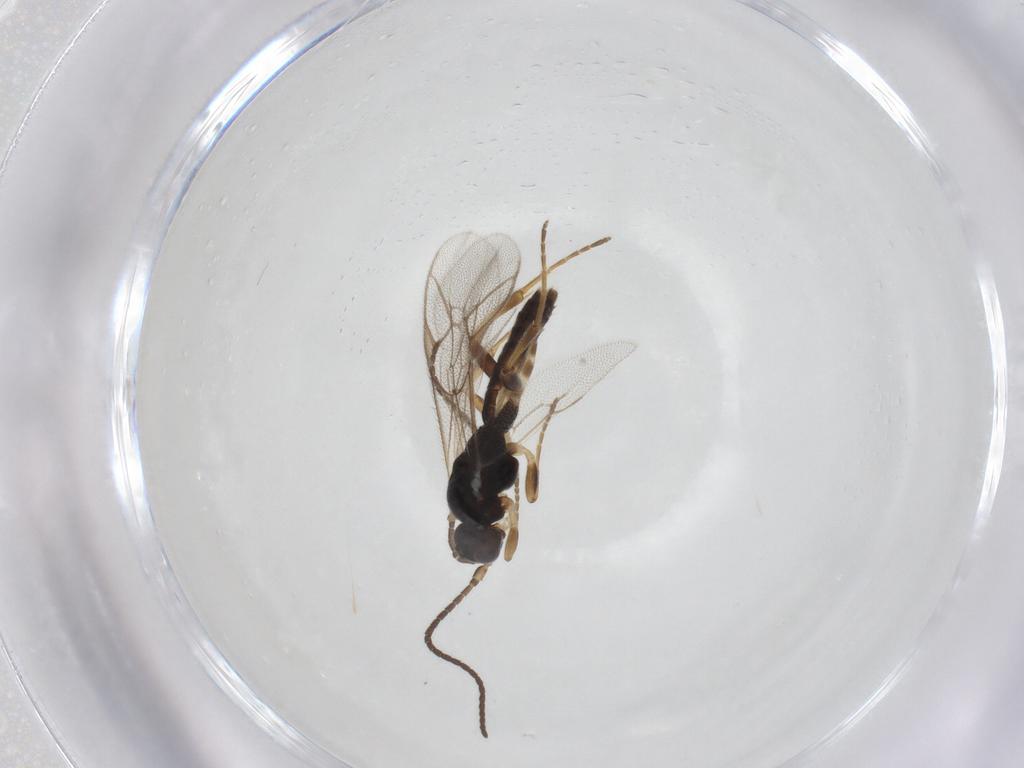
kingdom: Animalia
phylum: Arthropoda
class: Insecta
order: Hymenoptera
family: Ichneumonidae
